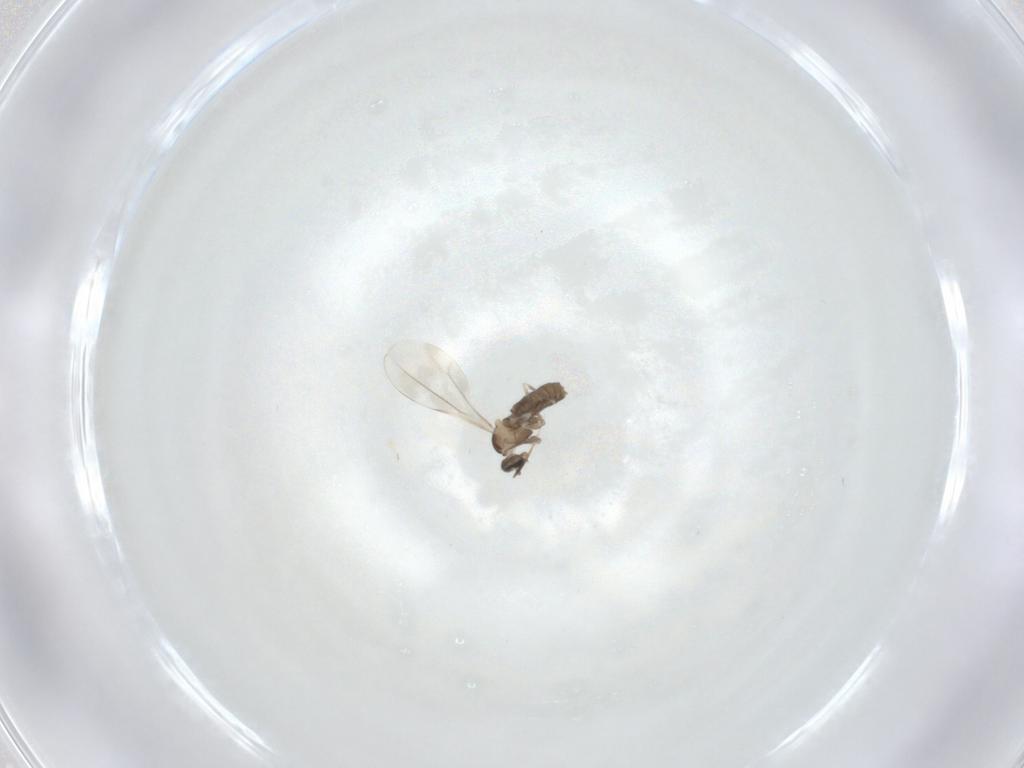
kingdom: Animalia
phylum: Arthropoda
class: Insecta
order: Diptera
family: Cecidomyiidae
